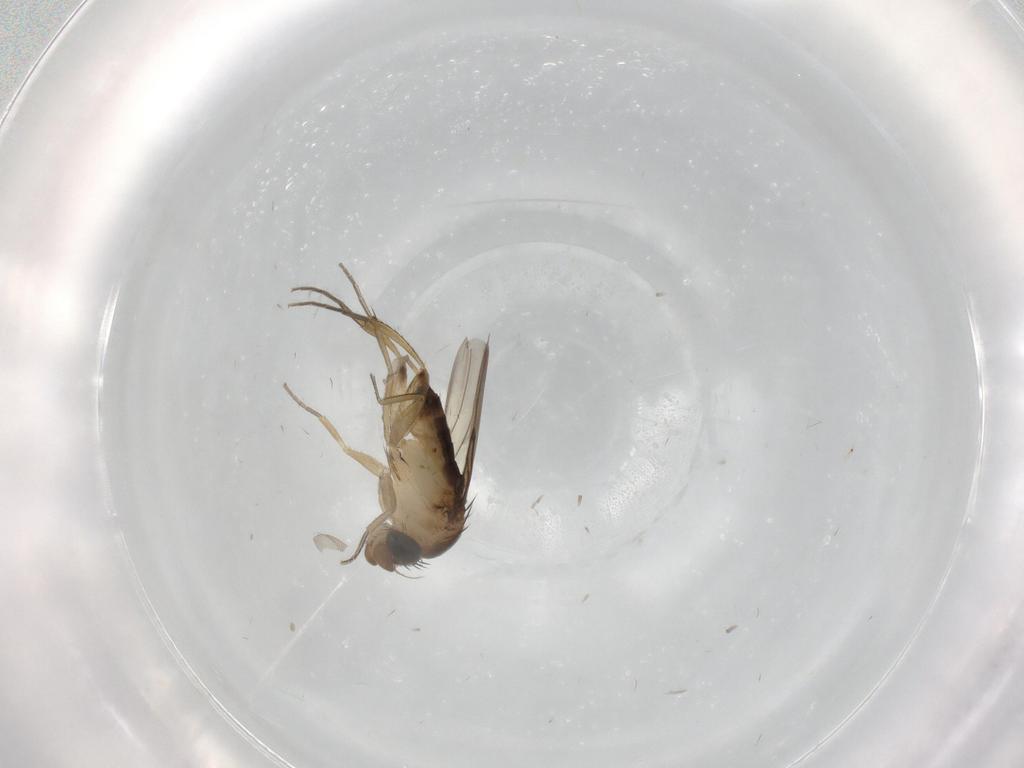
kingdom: Animalia
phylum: Arthropoda
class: Insecta
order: Diptera
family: Phoridae
